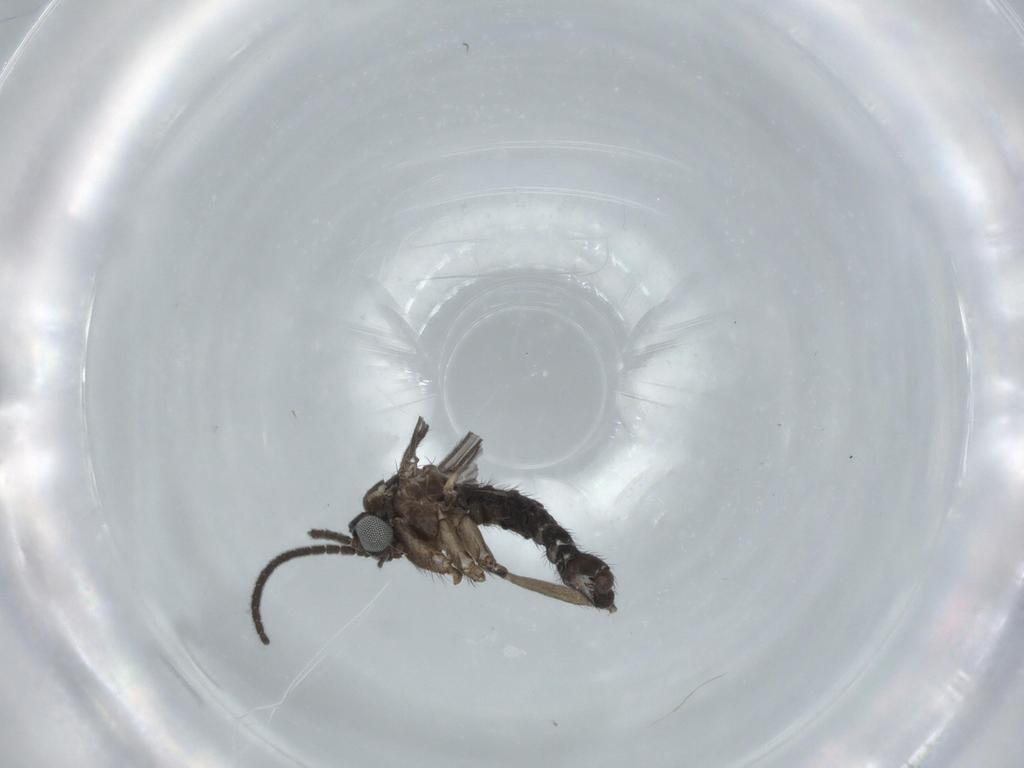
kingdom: Animalia
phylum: Arthropoda
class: Insecta
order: Diptera
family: Sciaridae
